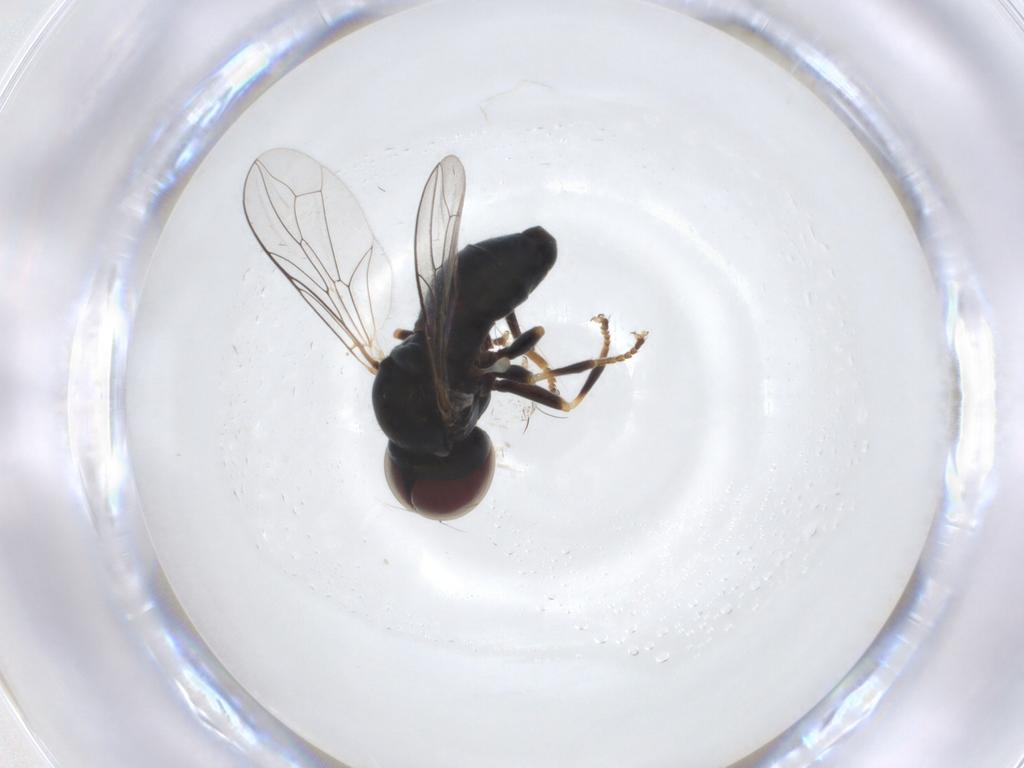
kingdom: Animalia
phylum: Arthropoda
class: Insecta
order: Diptera
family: Pipunculidae
